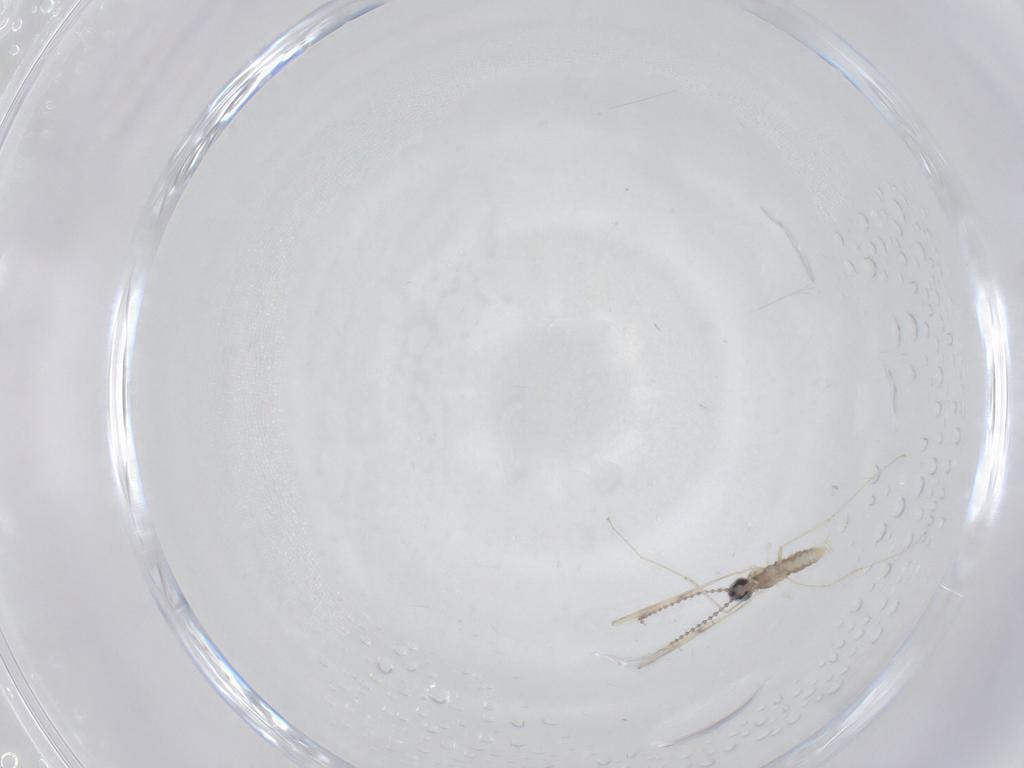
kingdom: Animalia
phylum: Arthropoda
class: Insecta
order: Diptera
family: Cecidomyiidae
